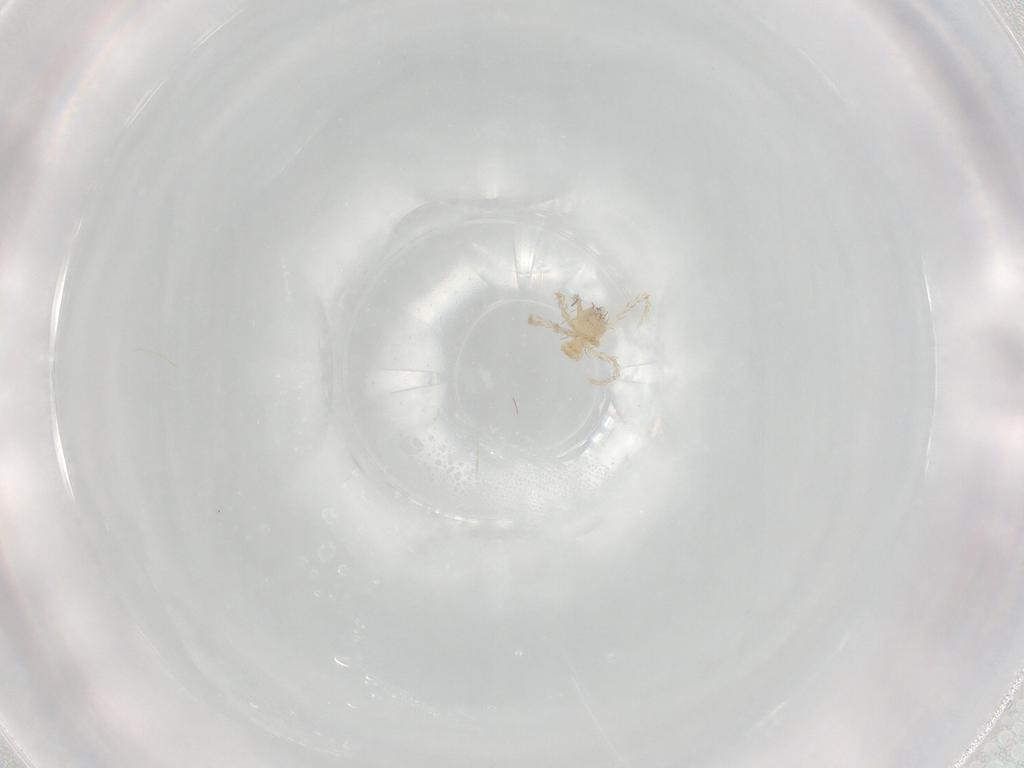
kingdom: Animalia
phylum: Arthropoda
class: Arachnida
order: Trombidiformes
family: Erythraeidae
